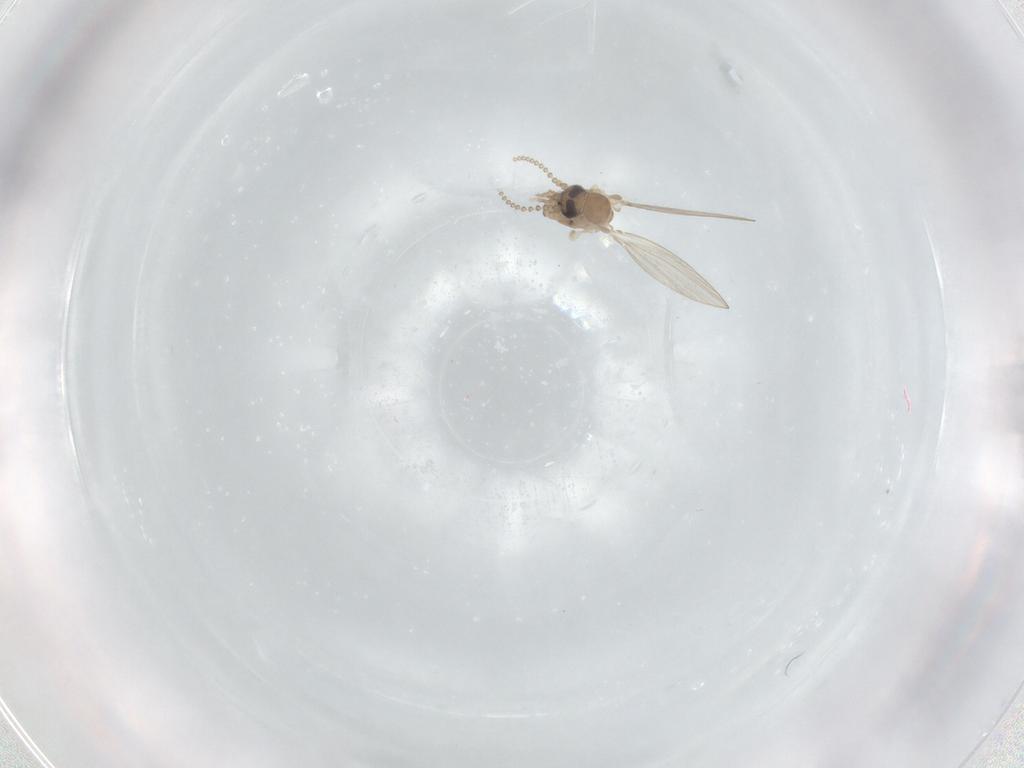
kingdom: Animalia
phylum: Arthropoda
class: Insecta
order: Diptera
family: Psychodidae
